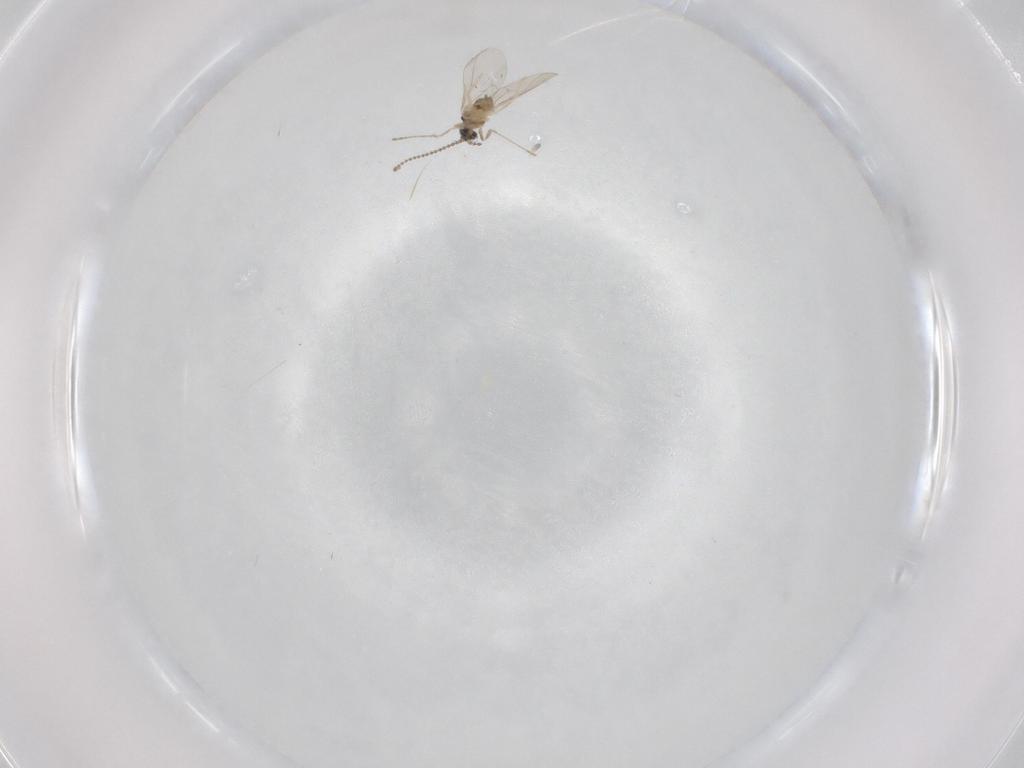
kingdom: Animalia
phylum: Arthropoda
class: Insecta
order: Diptera
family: Cecidomyiidae
